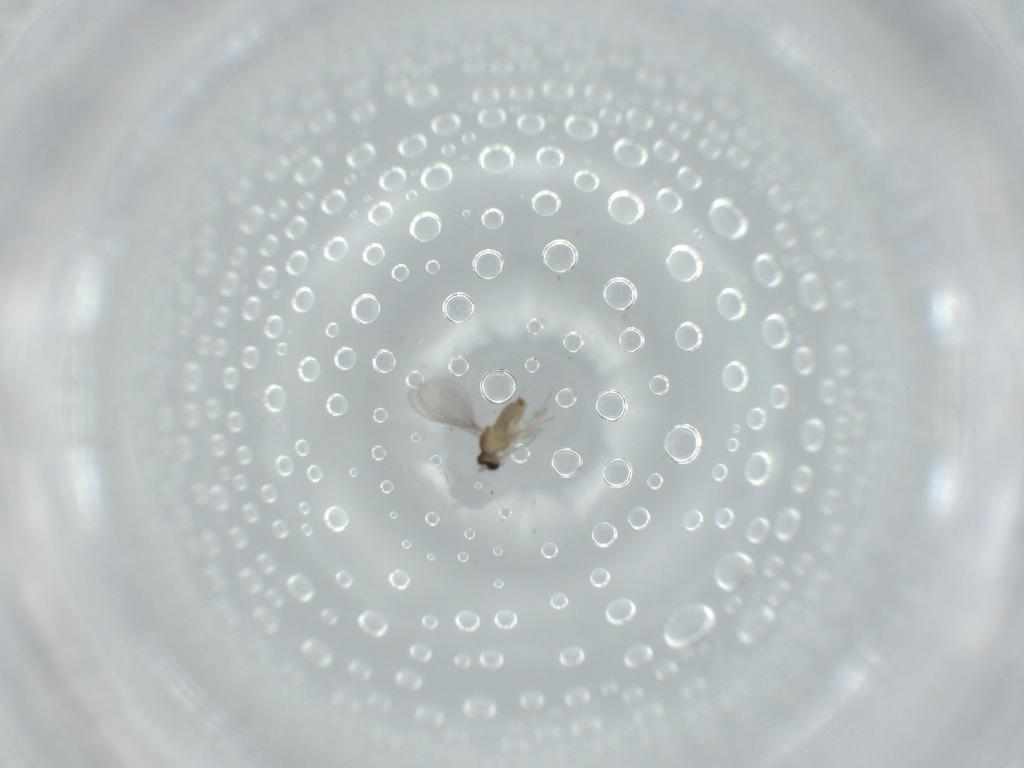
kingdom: Animalia
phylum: Arthropoda
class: Insecta
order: Diptera
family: Cecidomyiidae
